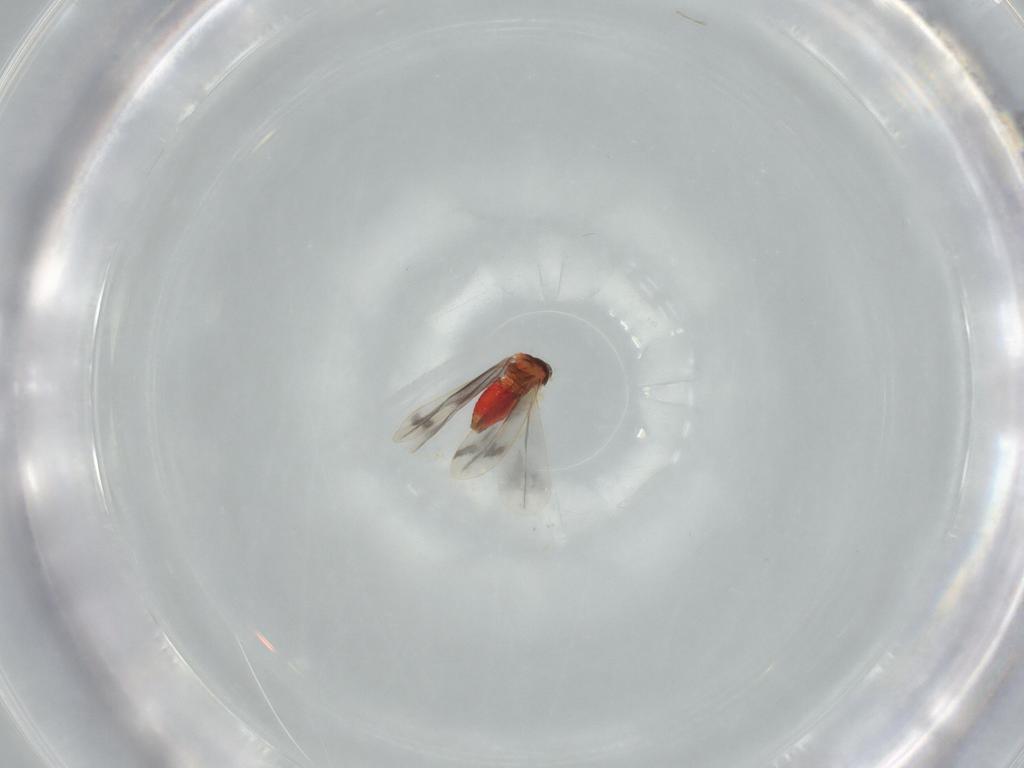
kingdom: Animalia
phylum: Arthropoda
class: Insecta
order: Hemiptera
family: Aleyrodidae
